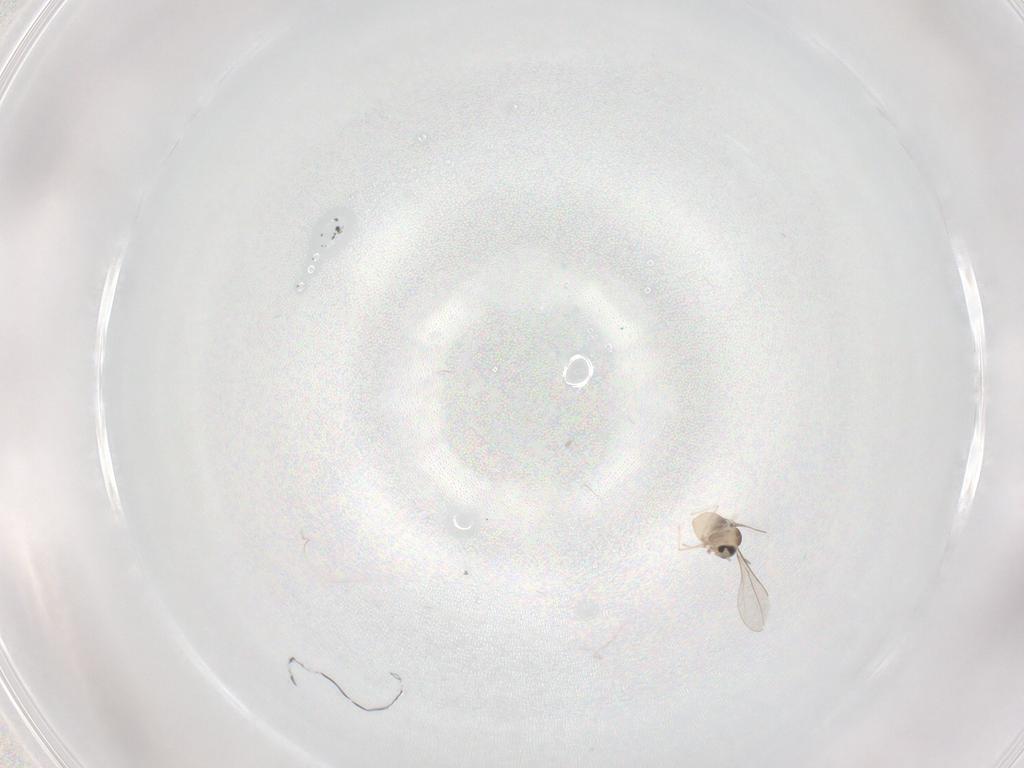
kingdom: Animalia
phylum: Arthropoda
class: Insecta
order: Diptera
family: Cecidomyiidae
